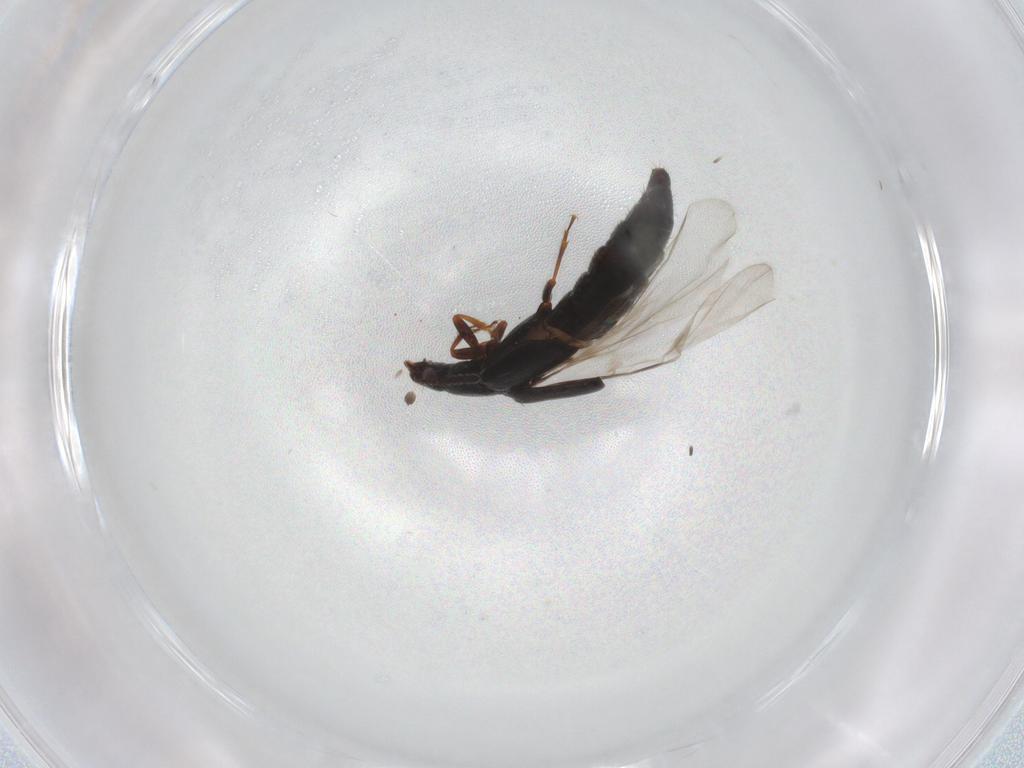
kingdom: Animalia
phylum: Arthropoda
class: Insecta
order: Coleoptera
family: Staphylinidae
